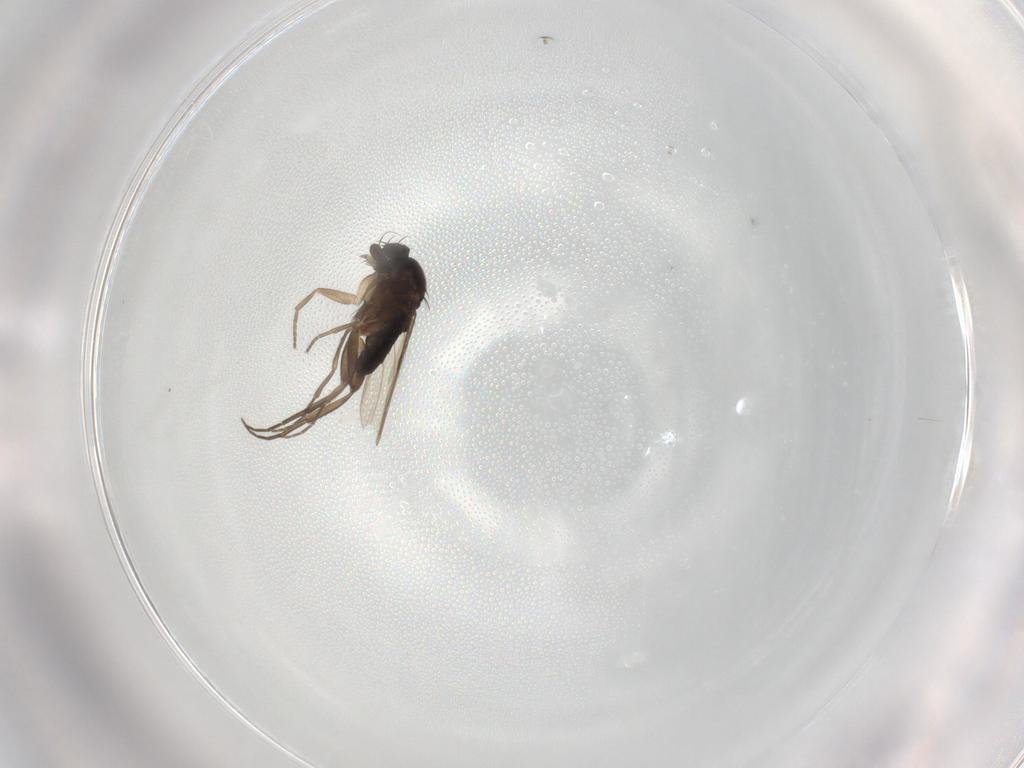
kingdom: Animalia
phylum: Arthropoda
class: Insecta
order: Diptera
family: Phoridae
